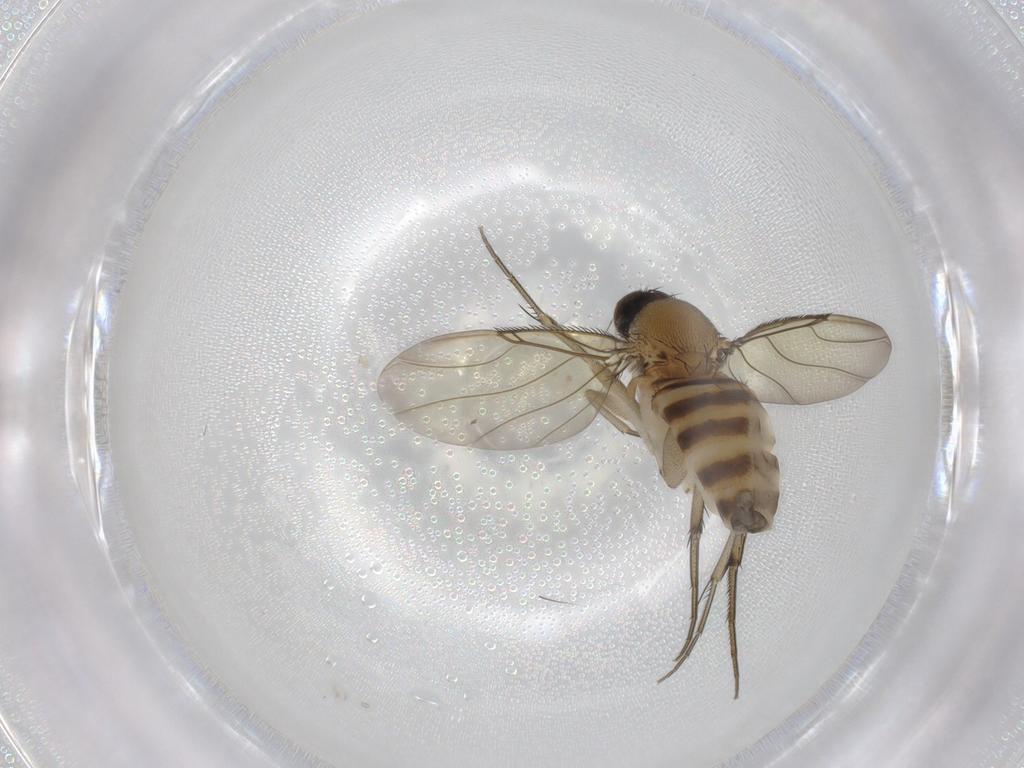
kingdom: Animalia
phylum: Arthropoda
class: Insecta
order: Diptera
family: Phoridae
